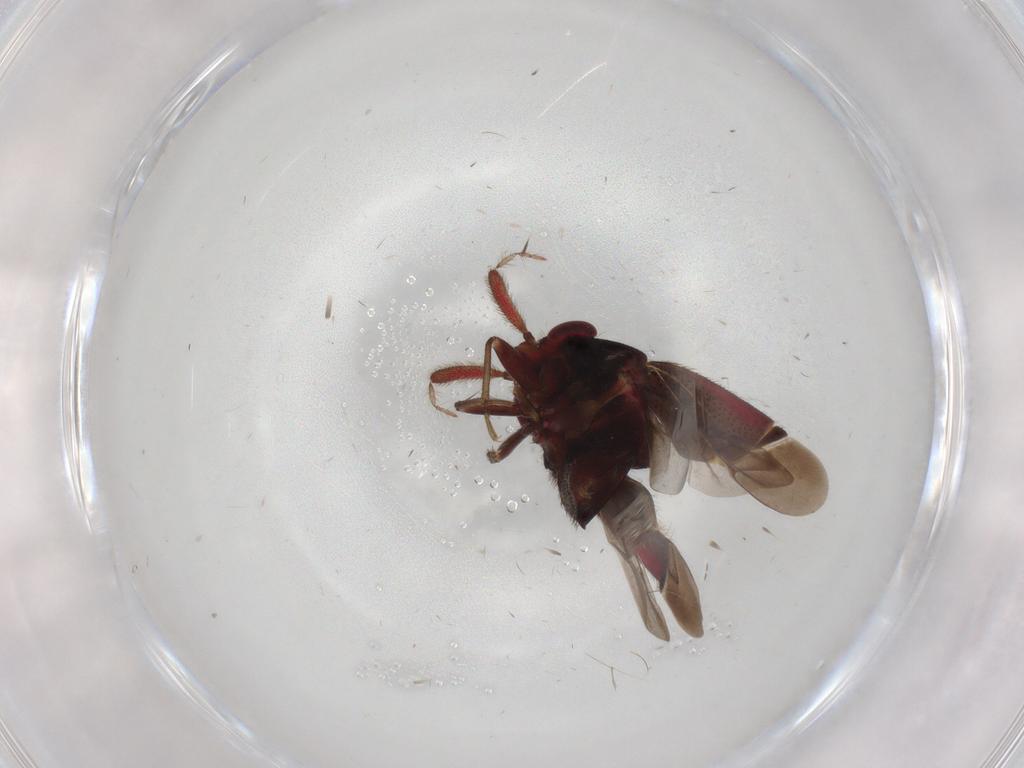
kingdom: Animalia
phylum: Arthropoda
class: Insecta
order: Hemiptera
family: Miridae
